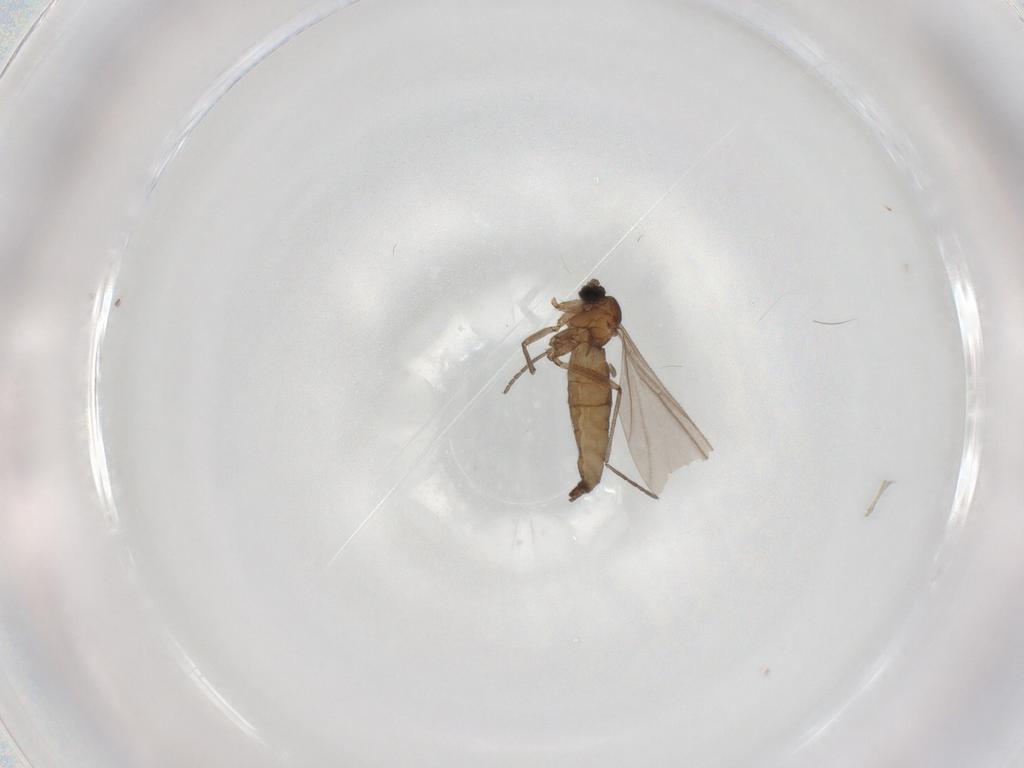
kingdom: Animalia
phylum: Arthropoda
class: Insecta
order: Diptera
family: Sciaridae
